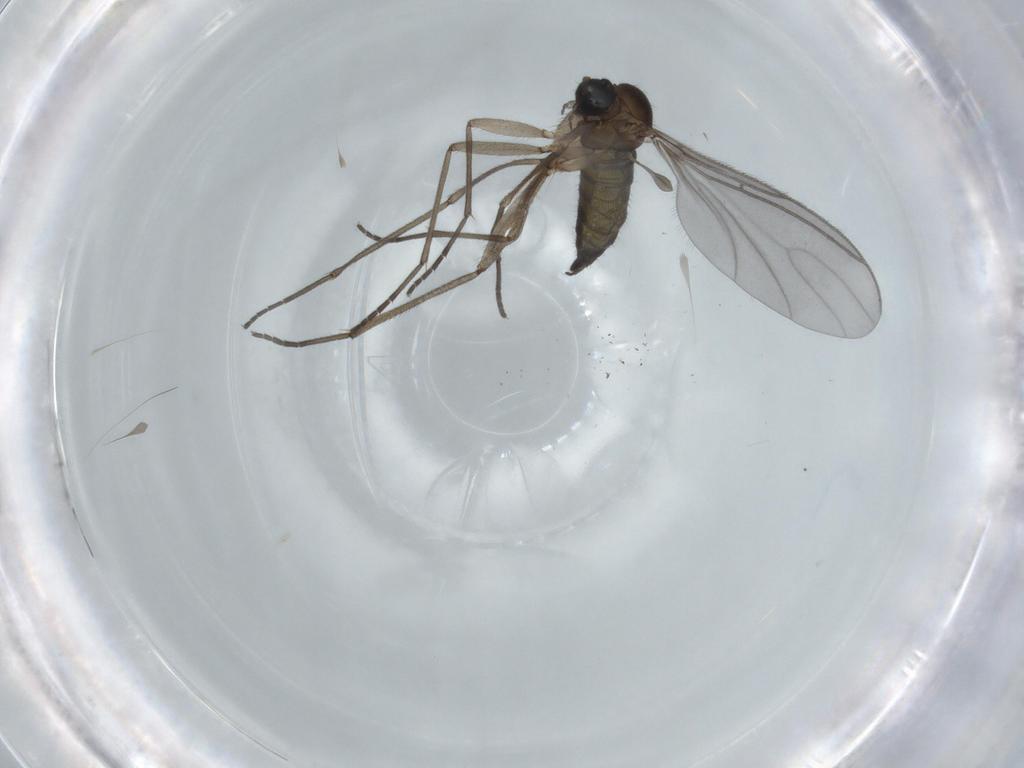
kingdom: Animalia
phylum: Arthropoda
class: Insecta
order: Diptera
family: Sciaridae
